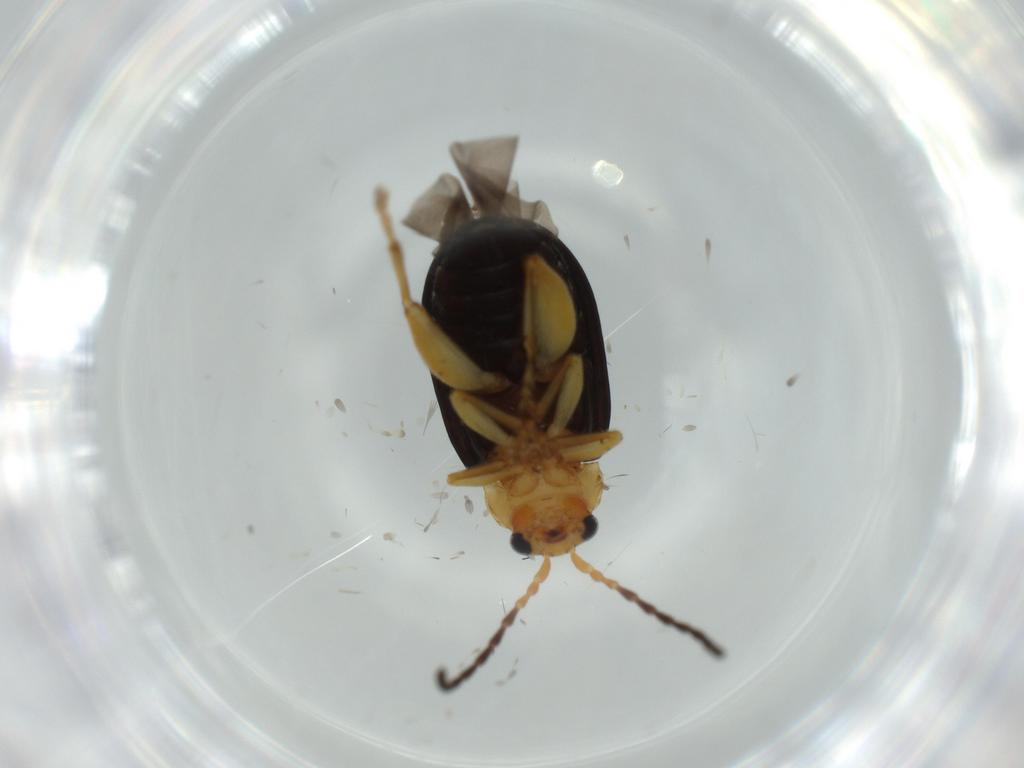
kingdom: Animalia
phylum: Arthropoda
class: Insecta
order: Coleoptera
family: Chrysomelidae
